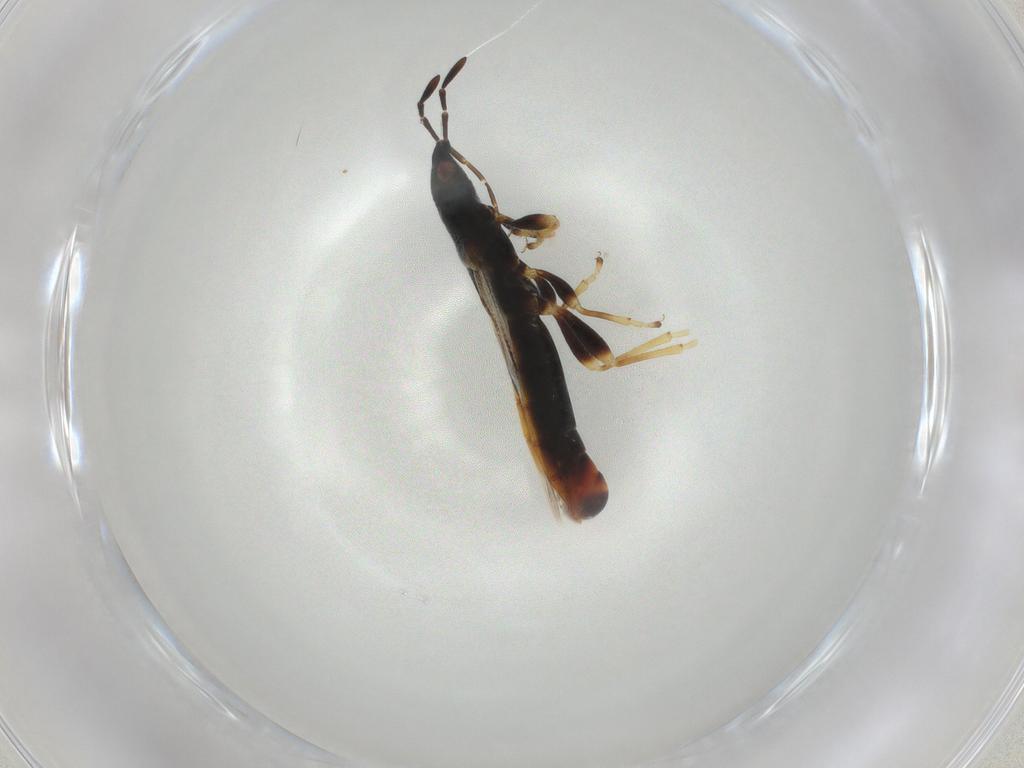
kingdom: Animalia
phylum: Arthropoda
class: Insecta
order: Hemiptera
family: Blissidae
